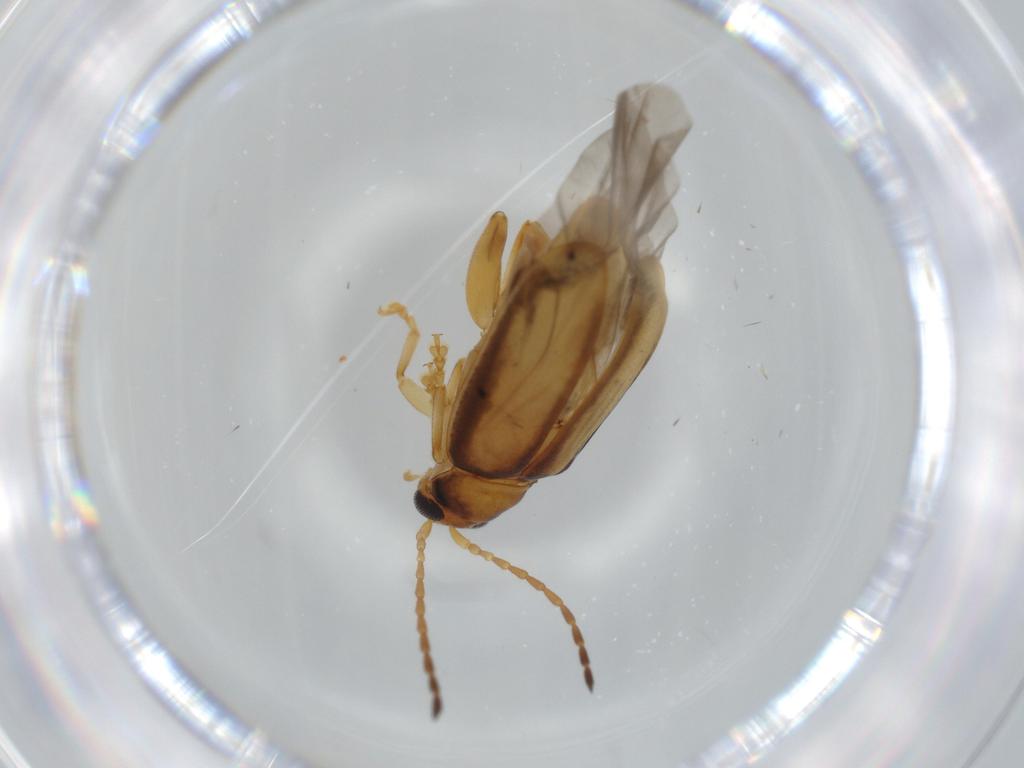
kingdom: Animalia
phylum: Arthropoda
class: Insecta
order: Coleoptera
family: Chrysomelidae
